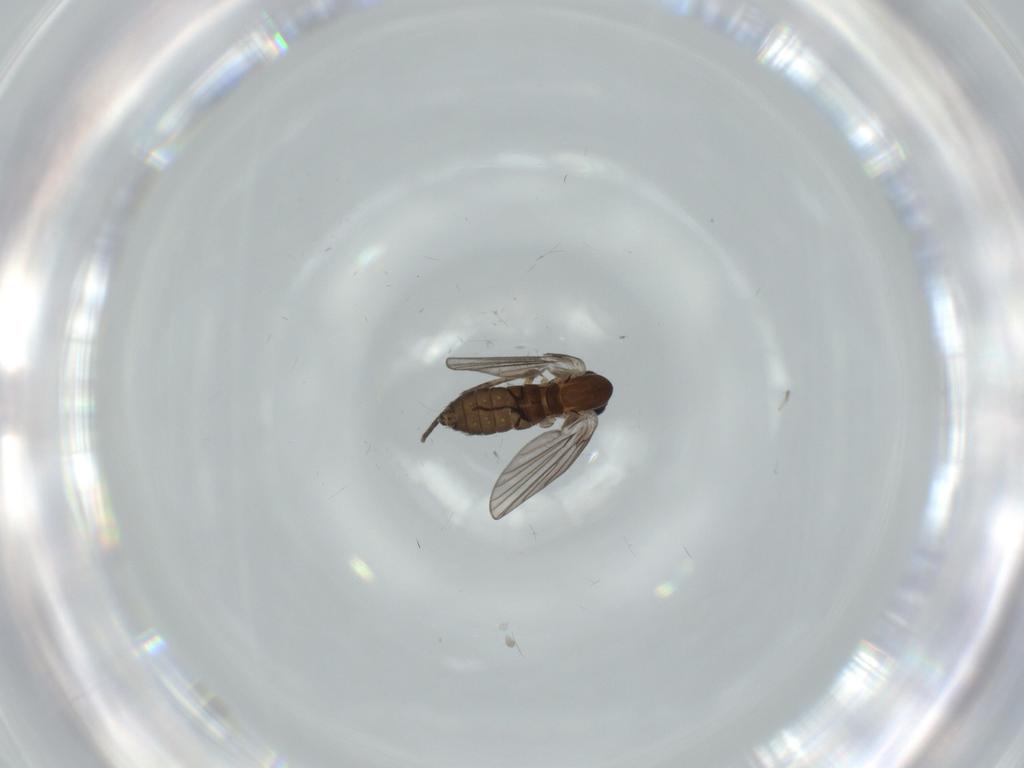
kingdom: Animalia
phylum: Arthropoda
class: Insecta
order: Diptera
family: Psychodidae
